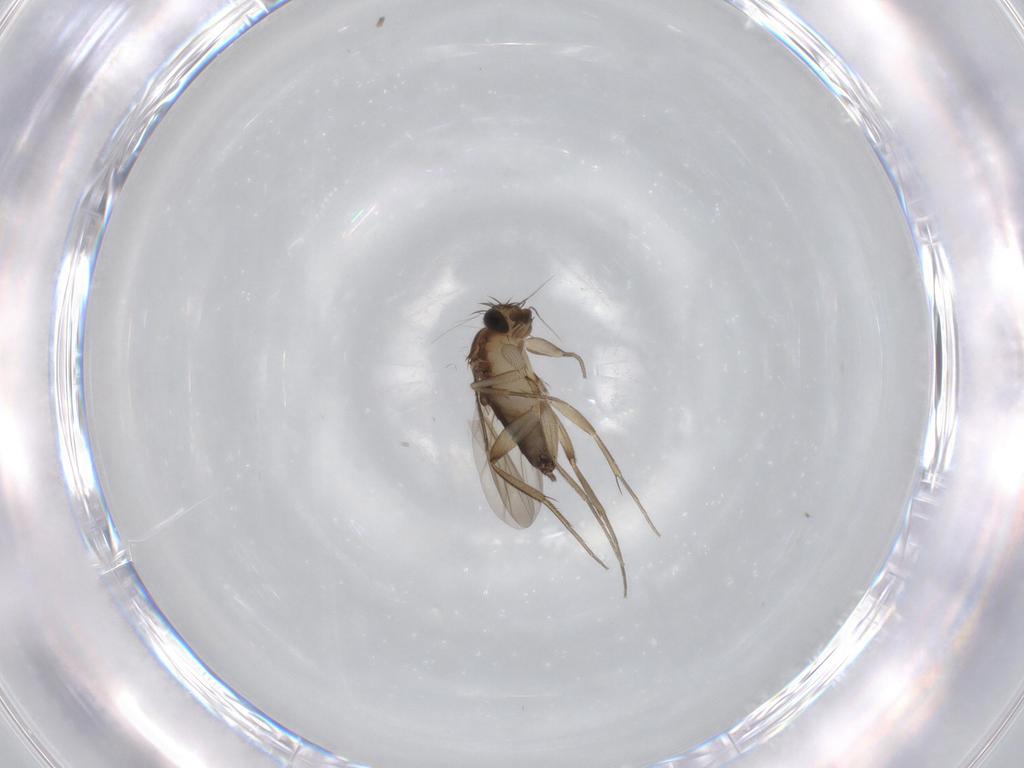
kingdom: Animalia
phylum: Arthropoda
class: Insecta
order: Diptera
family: Phoridae
